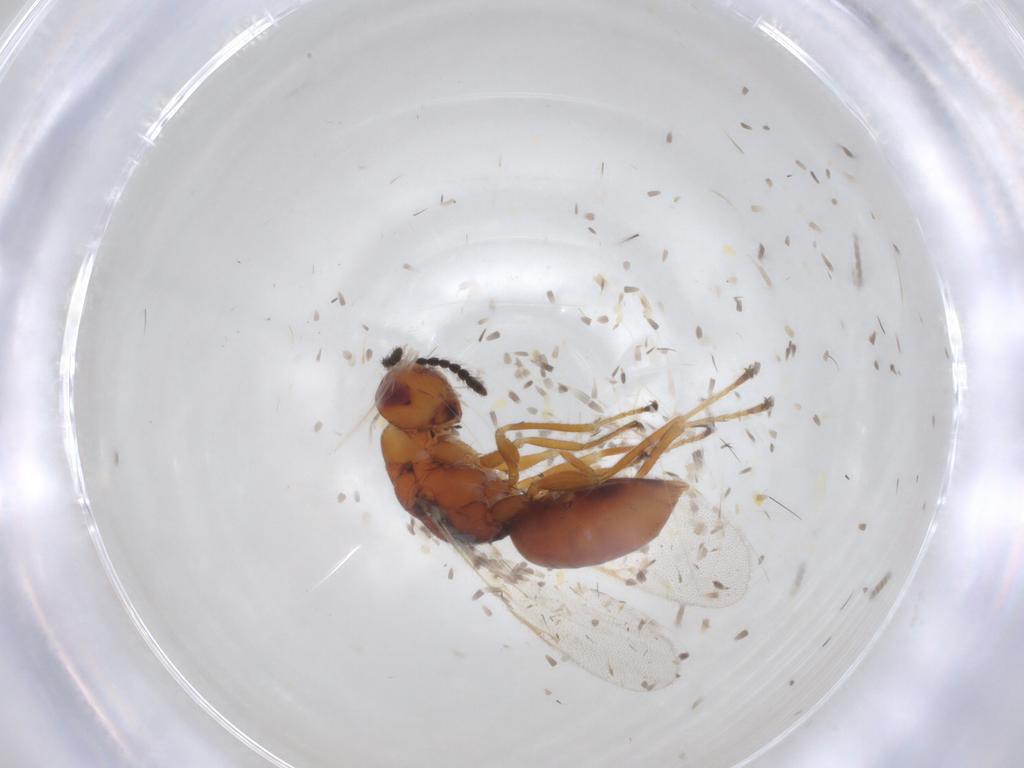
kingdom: Animalia
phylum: Arthropoda
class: Insecta
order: Hymenoptera
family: Eurytomidae
